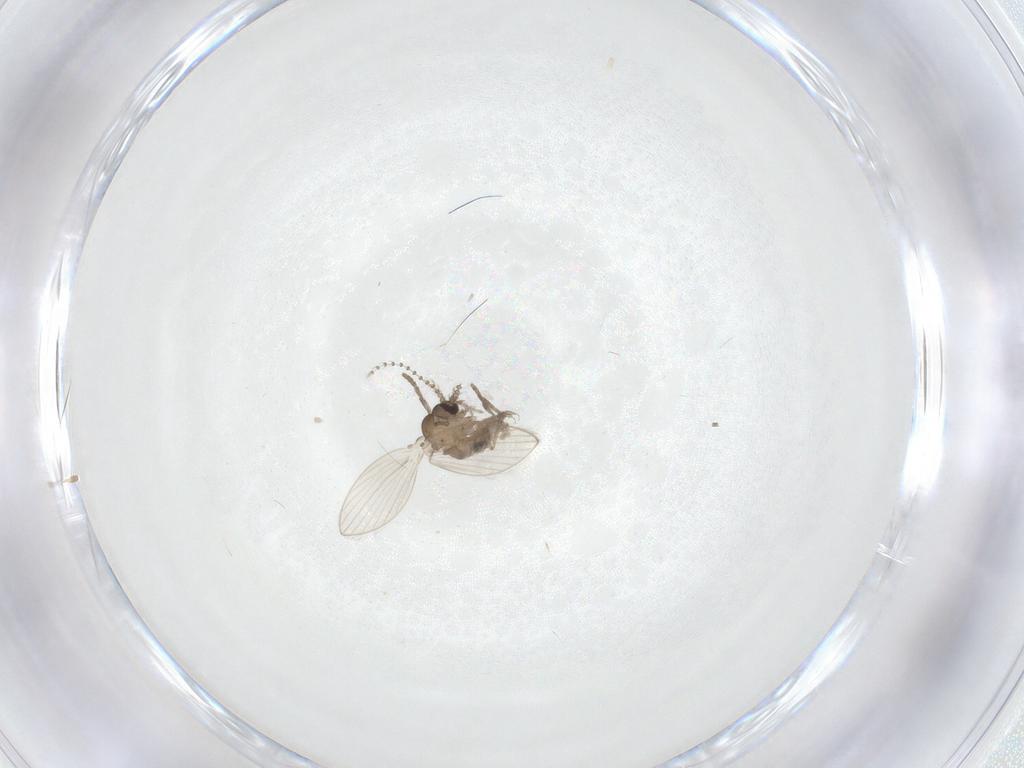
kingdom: Animalia
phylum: Arthropoda
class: Insecta
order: Diptera
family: Psychodidae
